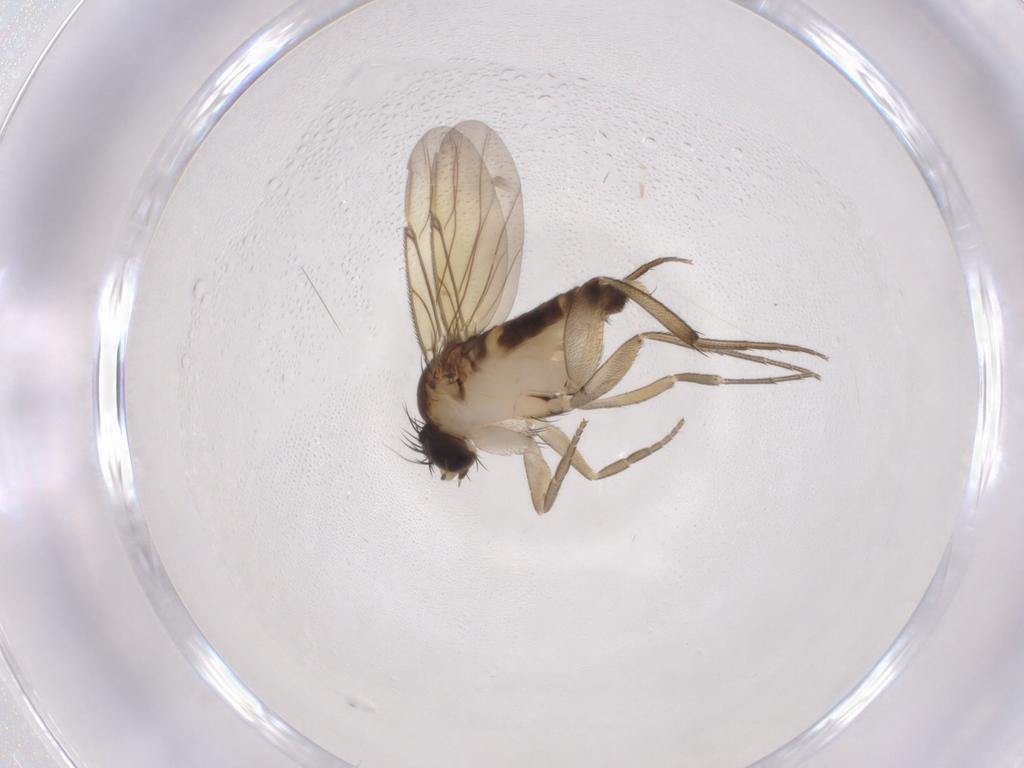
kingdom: Animalia
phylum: Arthropoda
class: Insecta
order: Diptera
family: Phoridae
